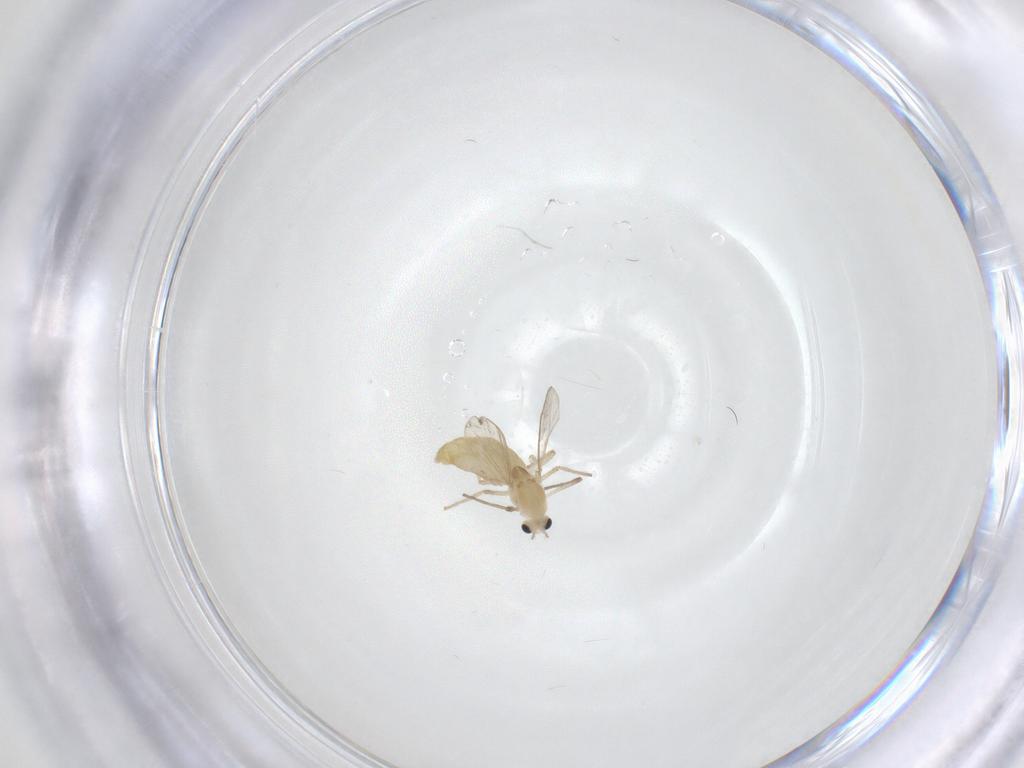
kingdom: Animalia
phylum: Arthropoda
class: Insecta
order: Diptera
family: Chironomidae
